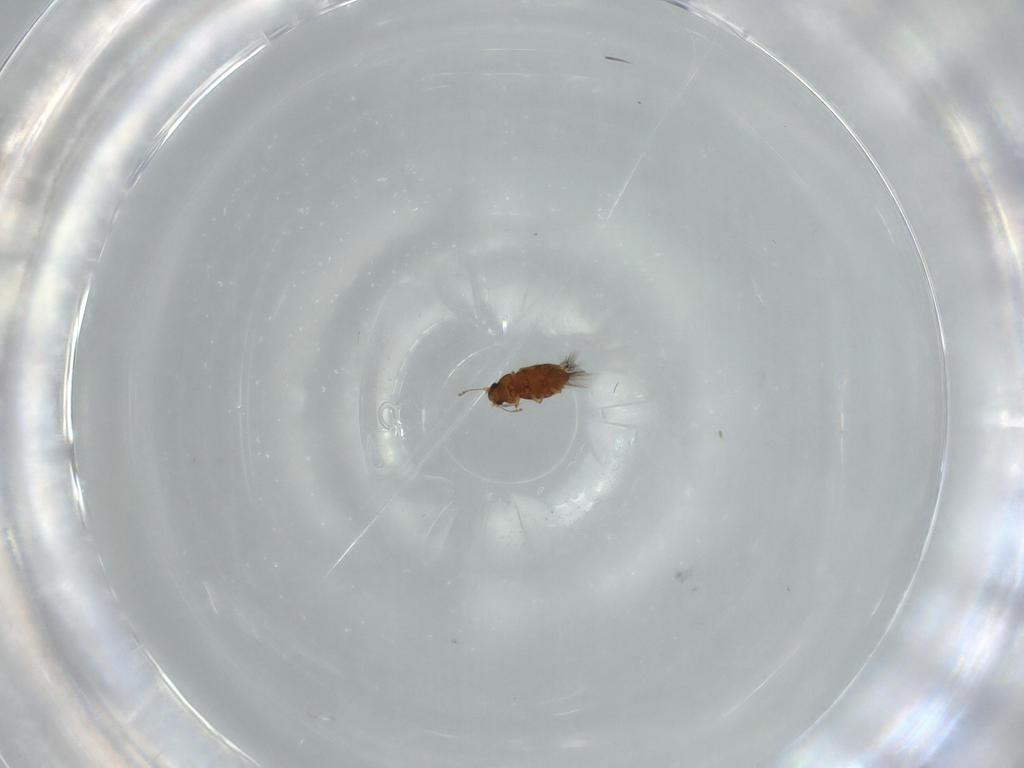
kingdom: Animalia
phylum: Arthropoda
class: Insecta
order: Coleoptera
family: Ptiliidae
